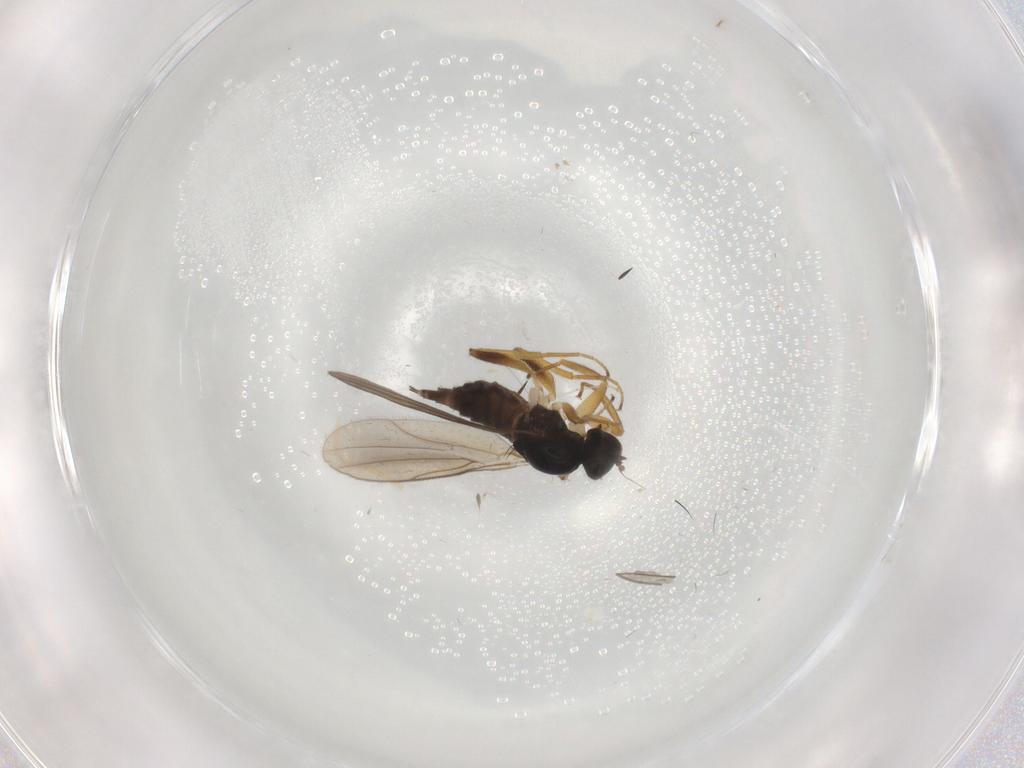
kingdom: Animalia
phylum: Arthropoda
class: Insecta
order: Diptera
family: Hybotidae
